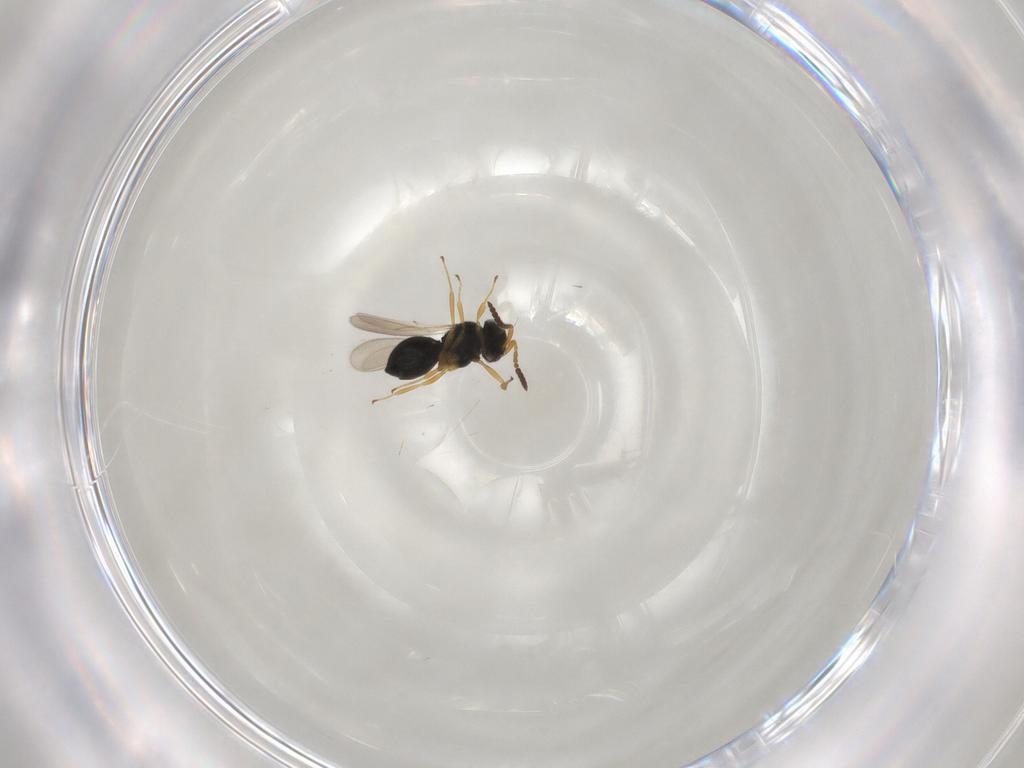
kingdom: Animalia
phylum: Arthropoda
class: Insecta
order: Hymenoptera
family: Scelionidae
